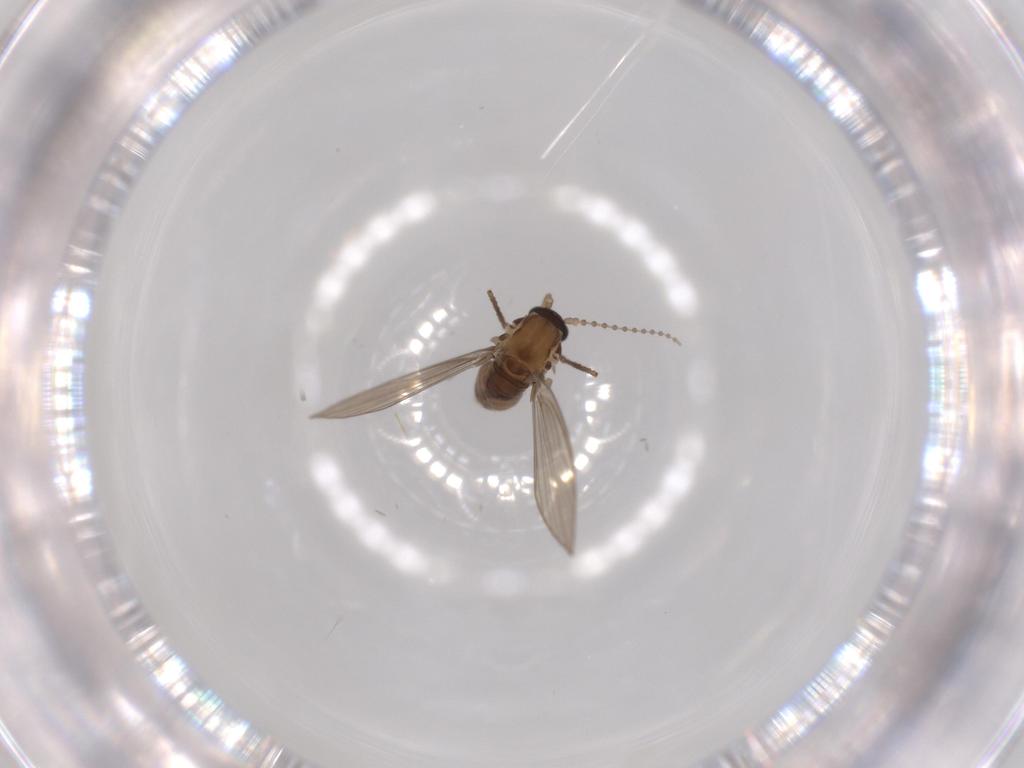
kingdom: Animalia
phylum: Arthropoda
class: Insecta
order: Diptera
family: Psychodidae
